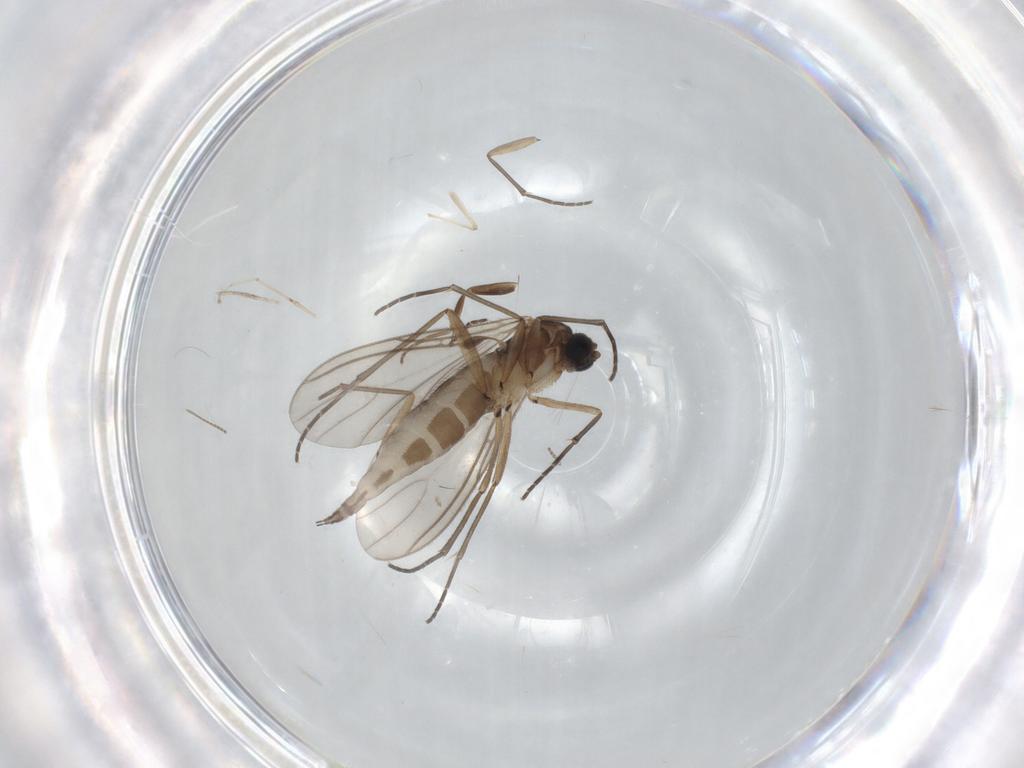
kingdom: Animalia
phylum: Arthropoda
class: Insecta
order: Diptera
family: Sciaridae
